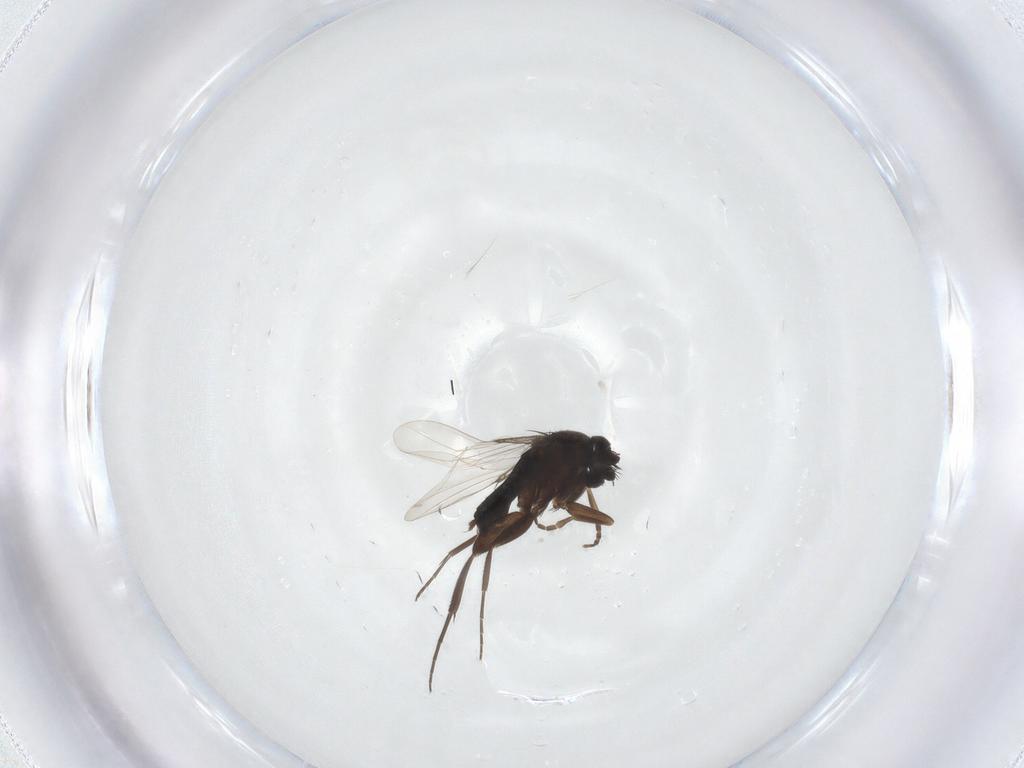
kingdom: Animalia
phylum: Arthropoda
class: Insecta
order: Diptera
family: Phoridae
